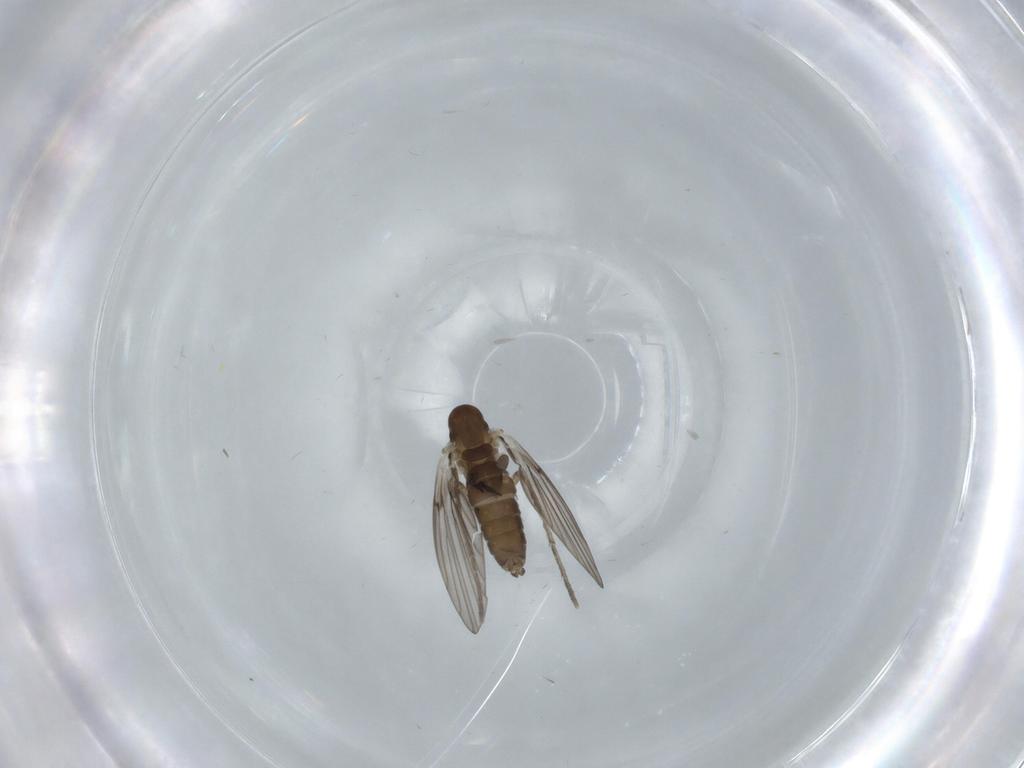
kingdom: Animalia
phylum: Arthropoda
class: Insecta
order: Diptera
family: Psychodidae
